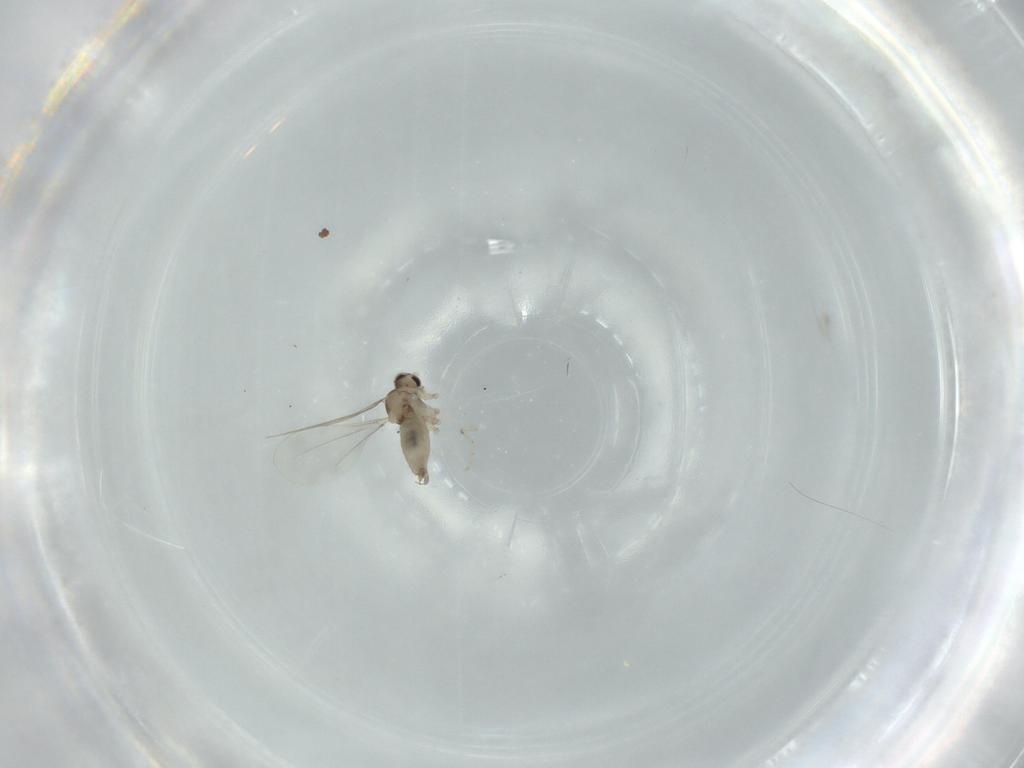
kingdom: Animalia
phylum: Arthropoda
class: Insecta
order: Diptera
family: Cecidomyiidae
